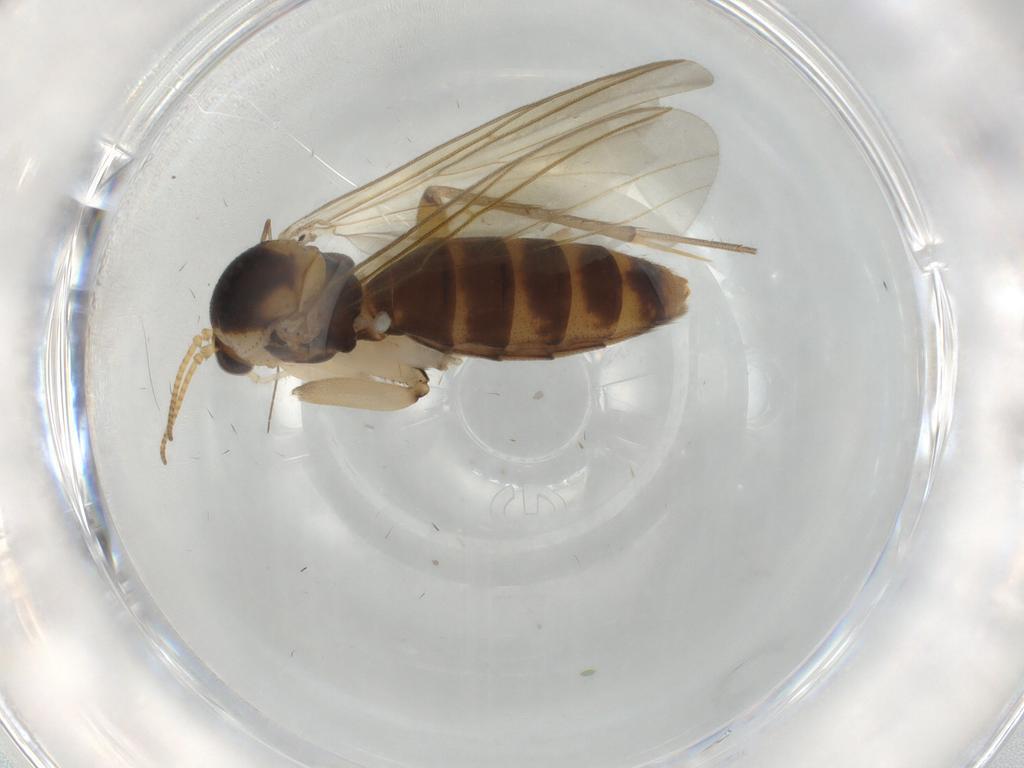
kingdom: Animalia
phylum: Arthropoda
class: Insecta
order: Diptera
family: Mycetophilidae
